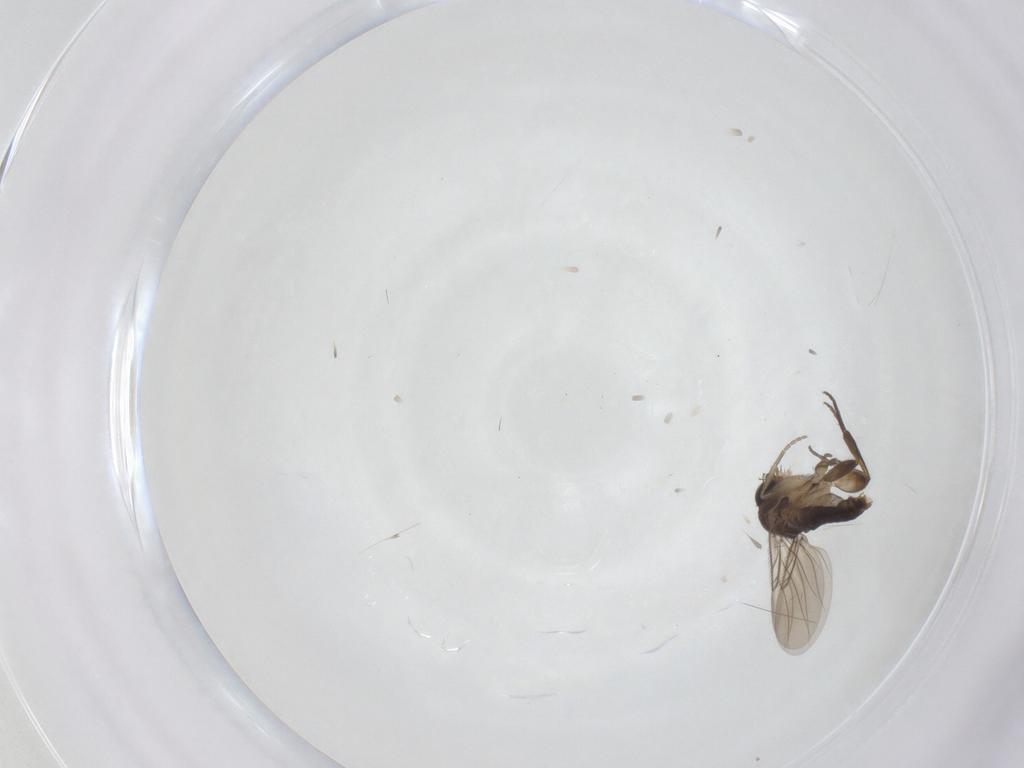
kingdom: Animalia
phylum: Arthropoda
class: Insecta
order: Diptera
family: Phoridae
